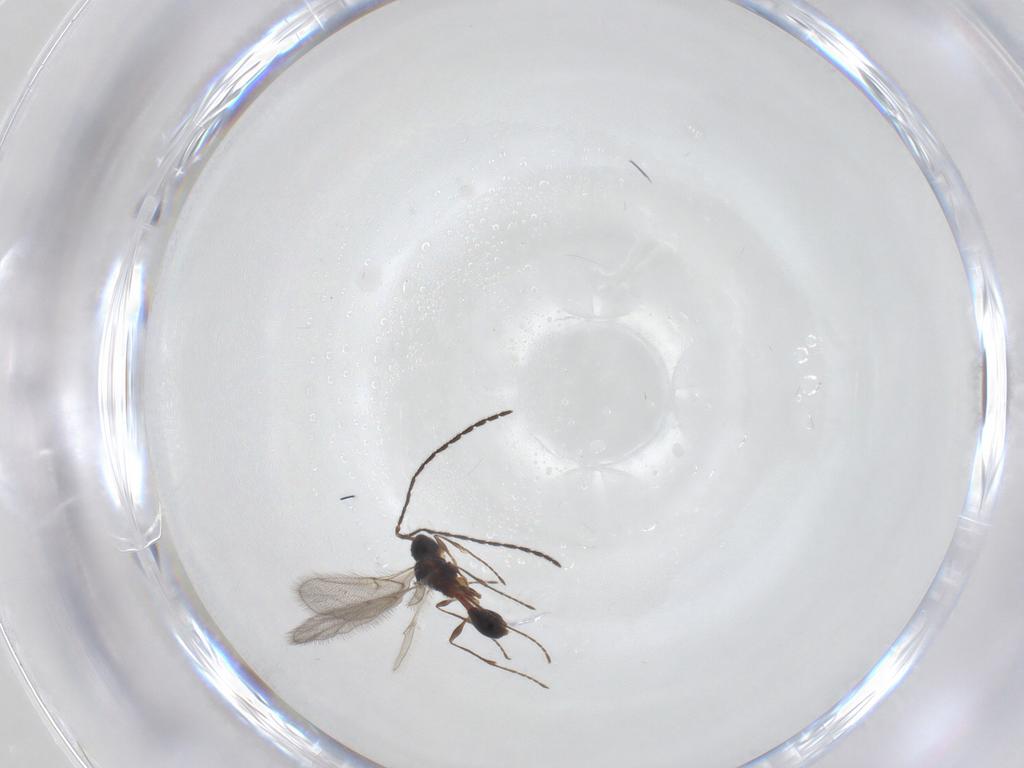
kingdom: Animalia
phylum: Arthropoda
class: Insecta
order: Hymenoptera
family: Diapriidae
